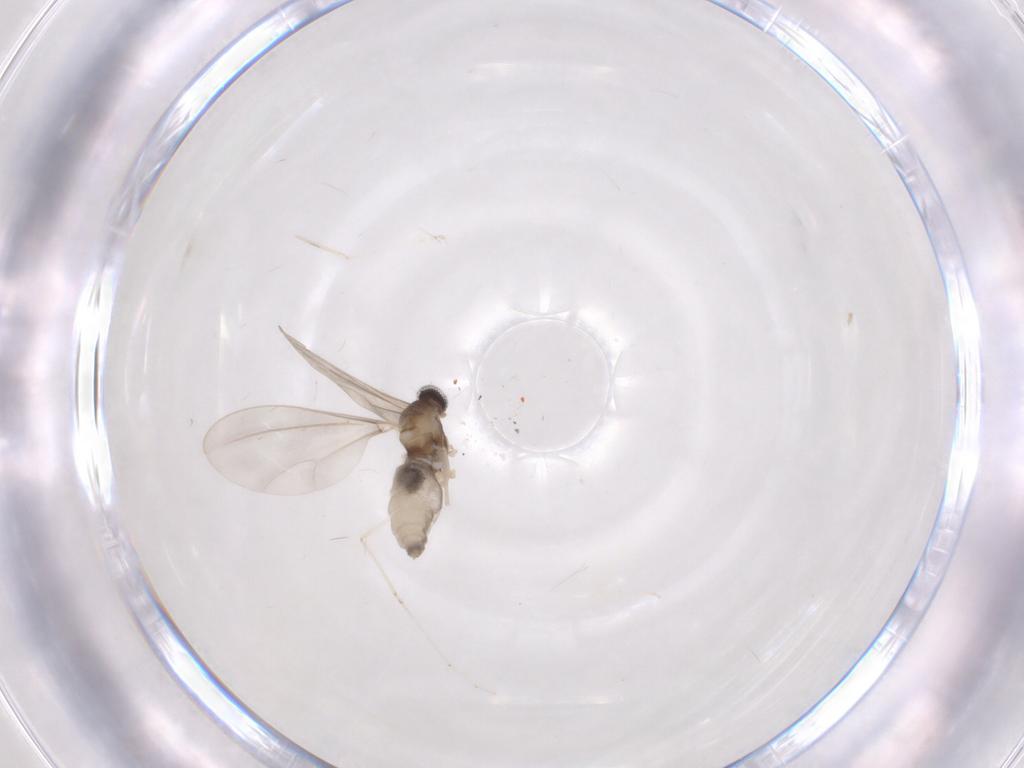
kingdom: Animalia
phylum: Arthropoda
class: Insecta
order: Diptera
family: Cecidomyiidae
